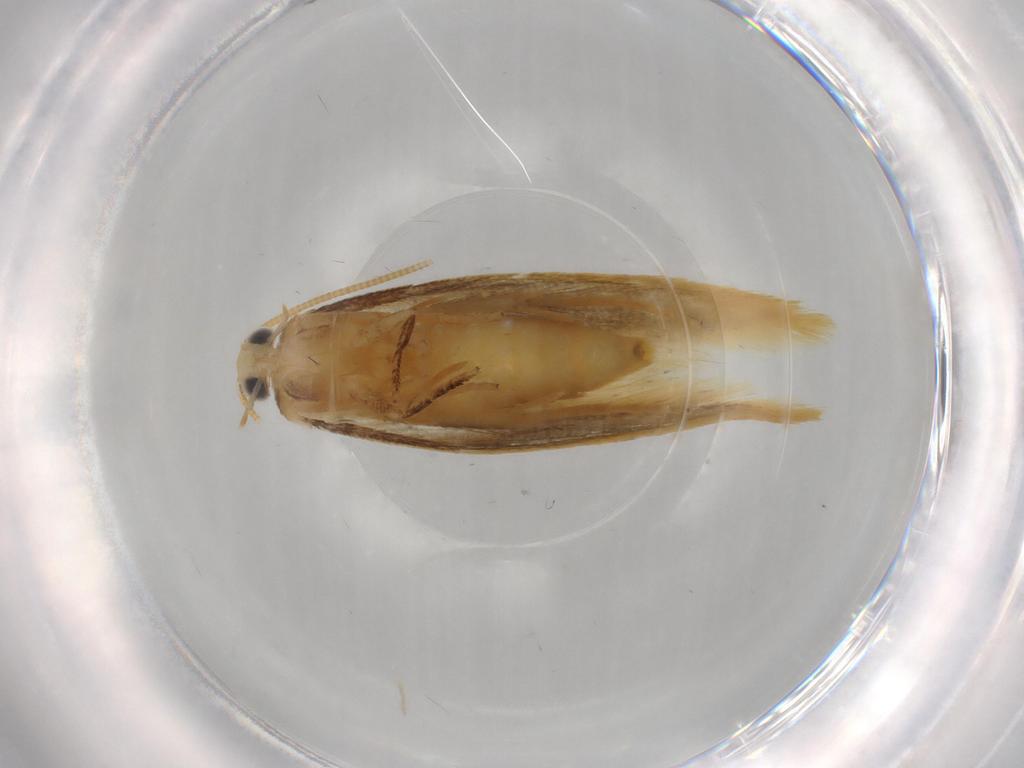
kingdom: Animalia
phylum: Arthropoda
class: Insecta
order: Lepidoptera
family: Tineidae
